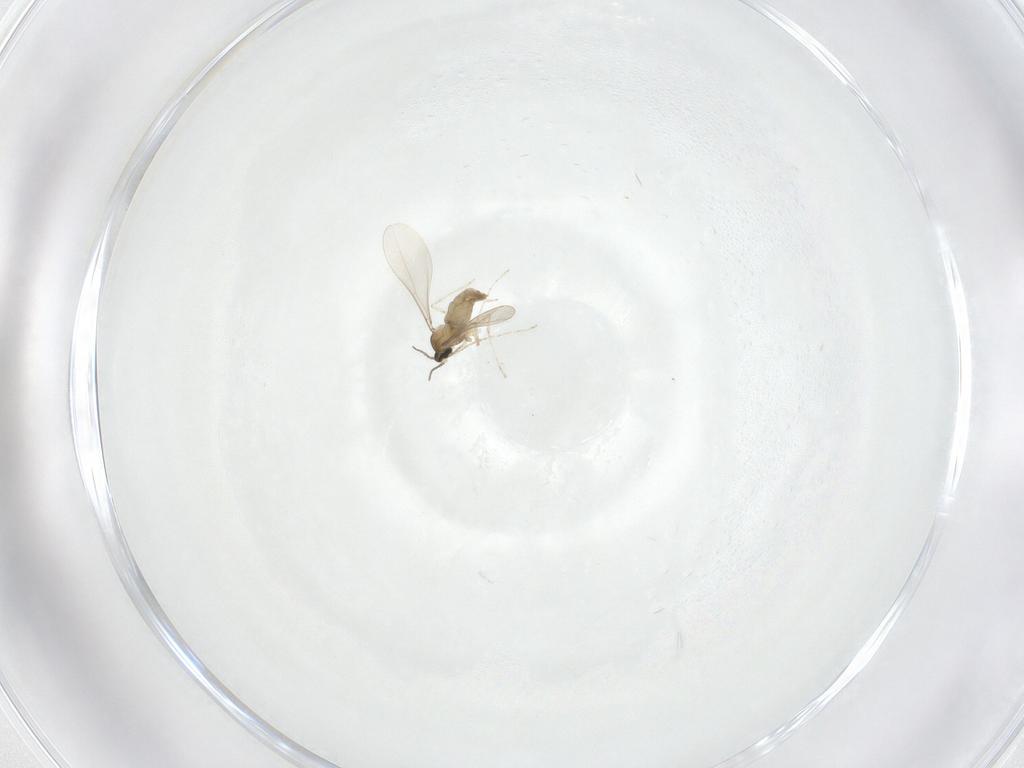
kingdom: Animalia
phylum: Arthropoda
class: Insecta
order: Diptera
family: Cecidomyiidae
